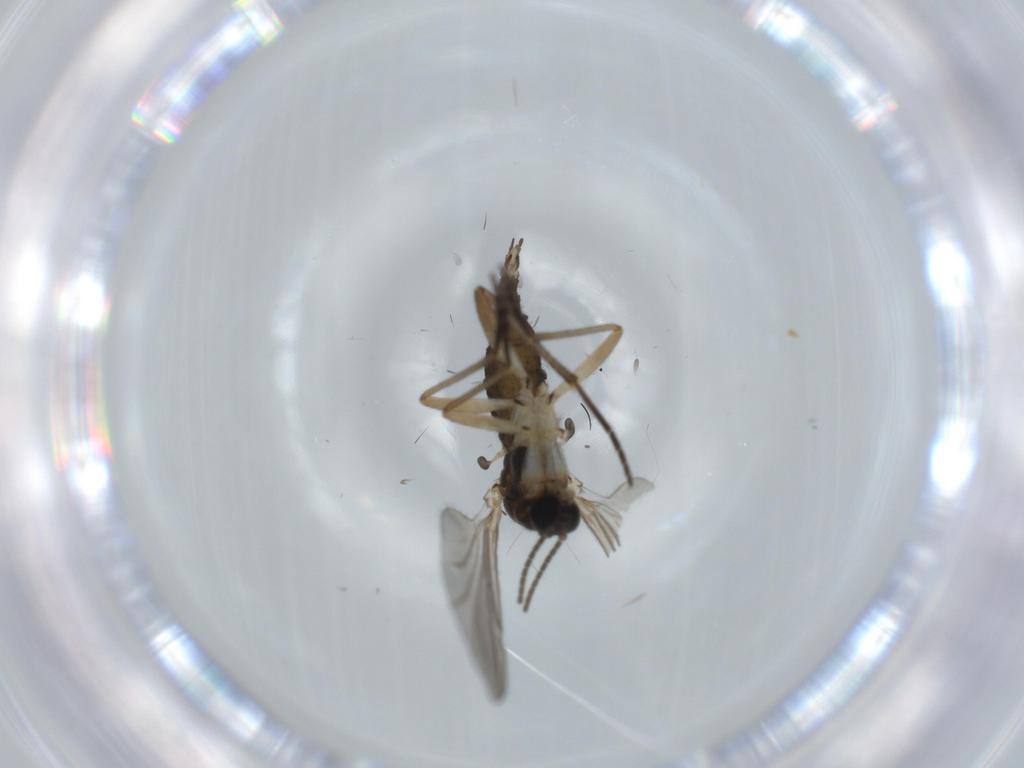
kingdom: Animalia
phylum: Arthropoda
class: Insecta
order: Diptera
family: Sciaridae
